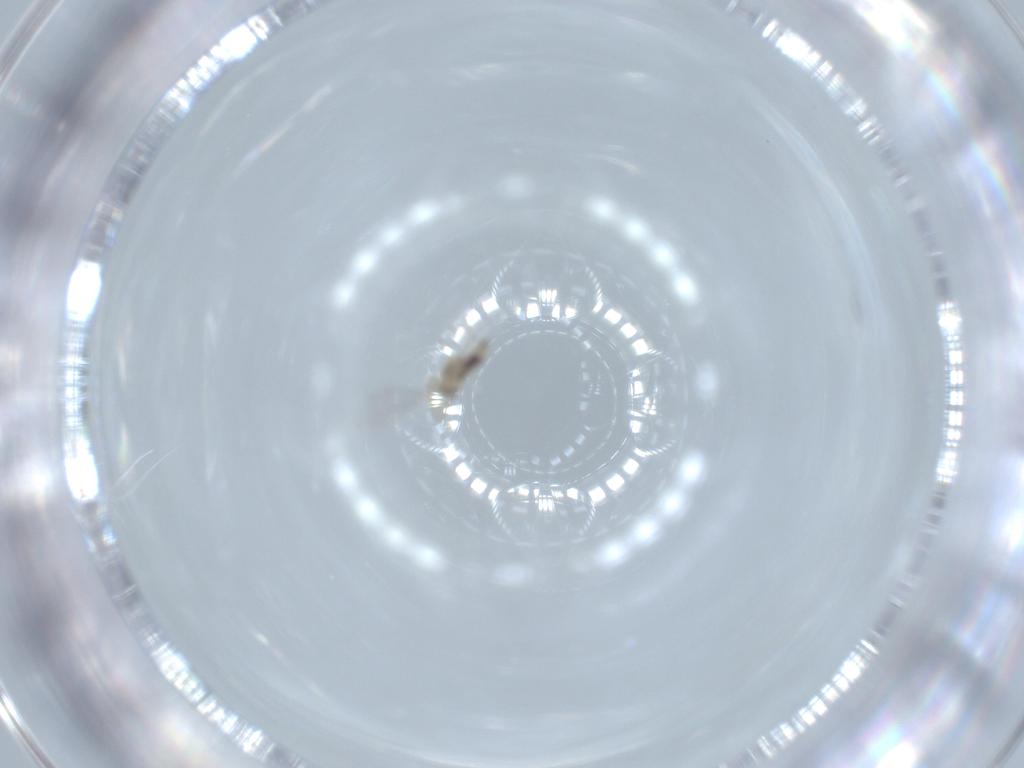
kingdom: Animalia
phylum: Arthropoda
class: Insecta
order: Diptera
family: Cecidomyiidae
